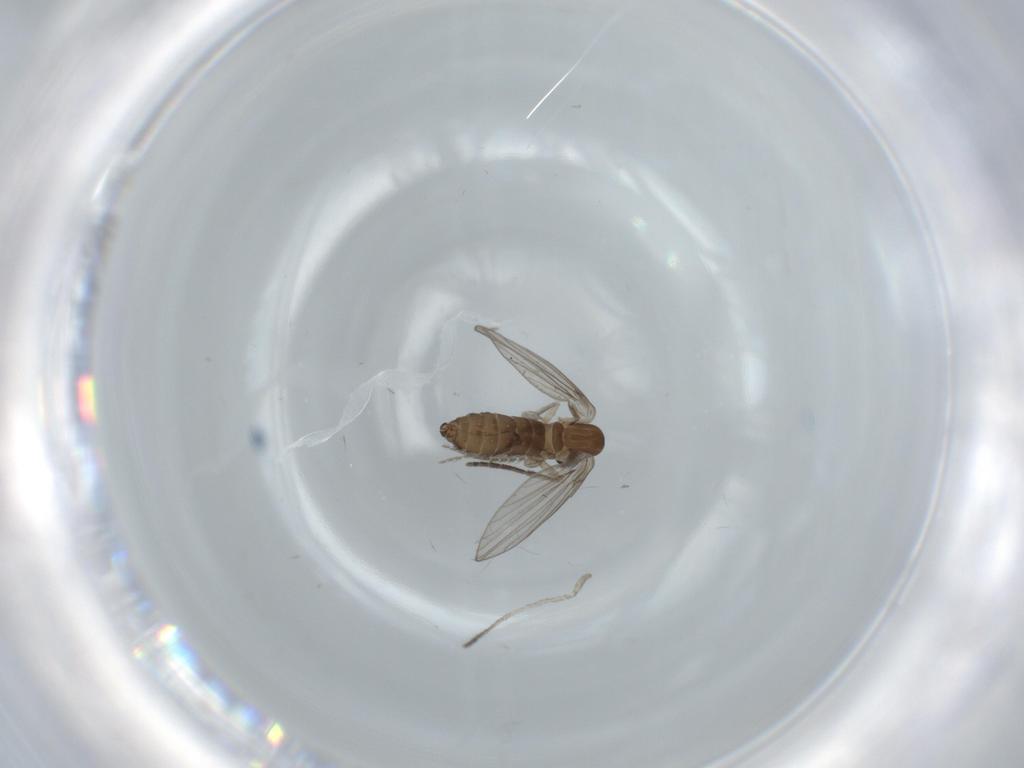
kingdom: Animalia
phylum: Arthropoda
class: Insecta
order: Diptera
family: Psychodidae
